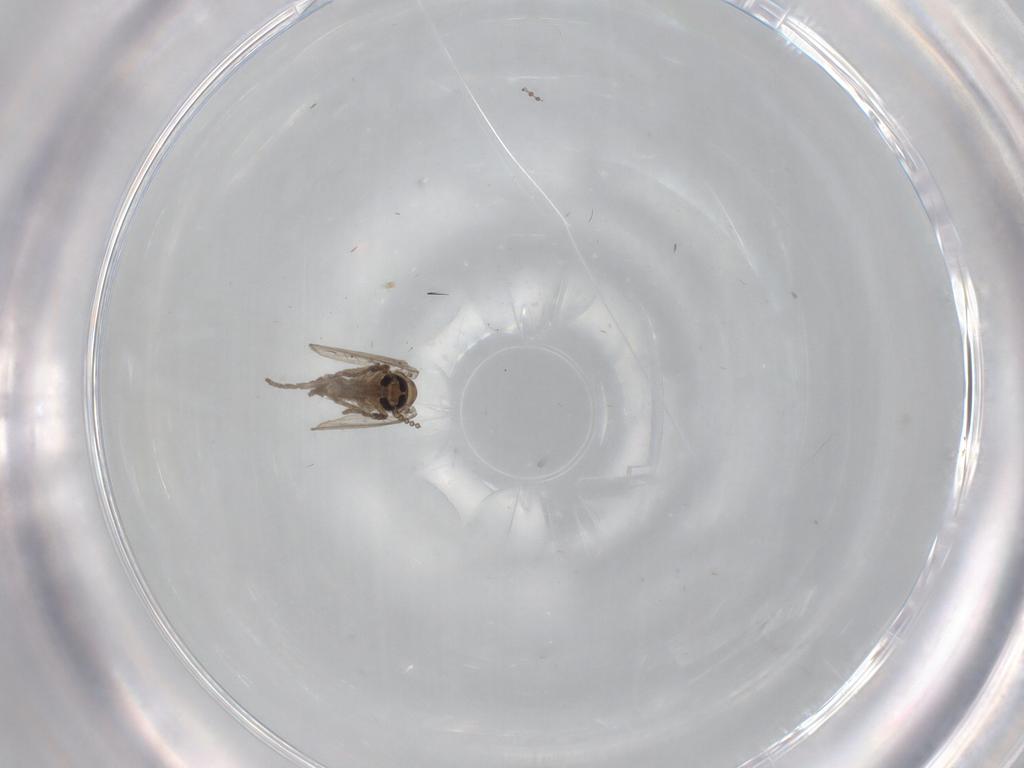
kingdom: Animalia
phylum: Arthropoda
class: Insecta
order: Diptera
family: Psychodidae
